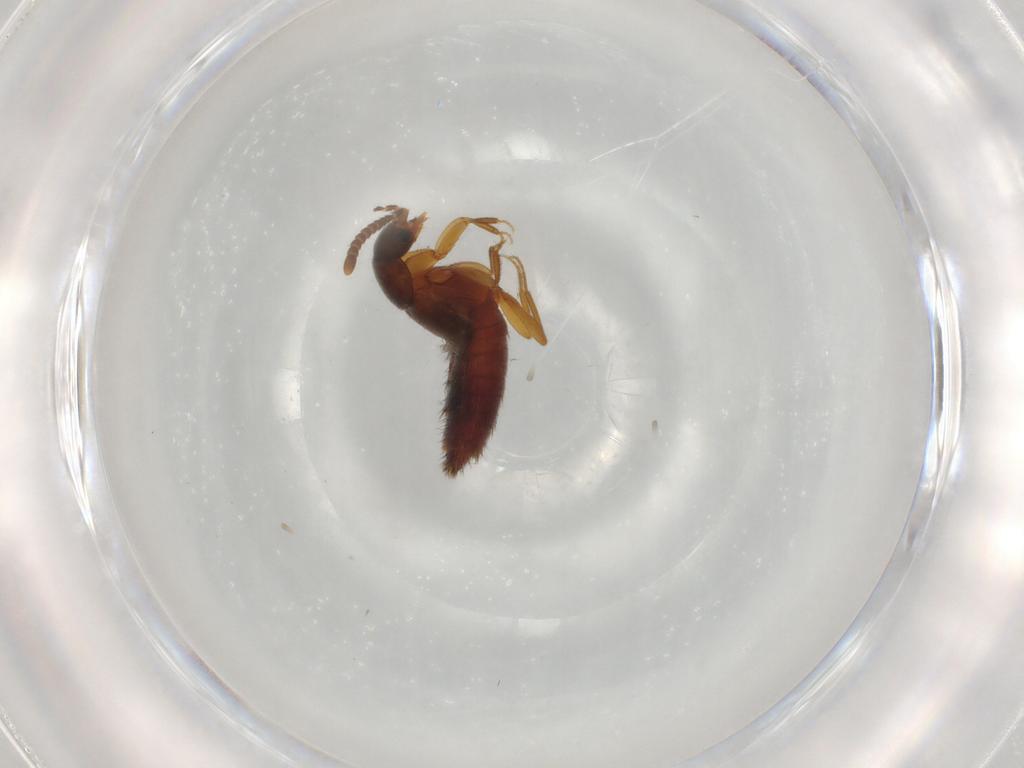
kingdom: Animalia
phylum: Arthropoda
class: Insecta
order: Coleoptera
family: Staphylinidae
